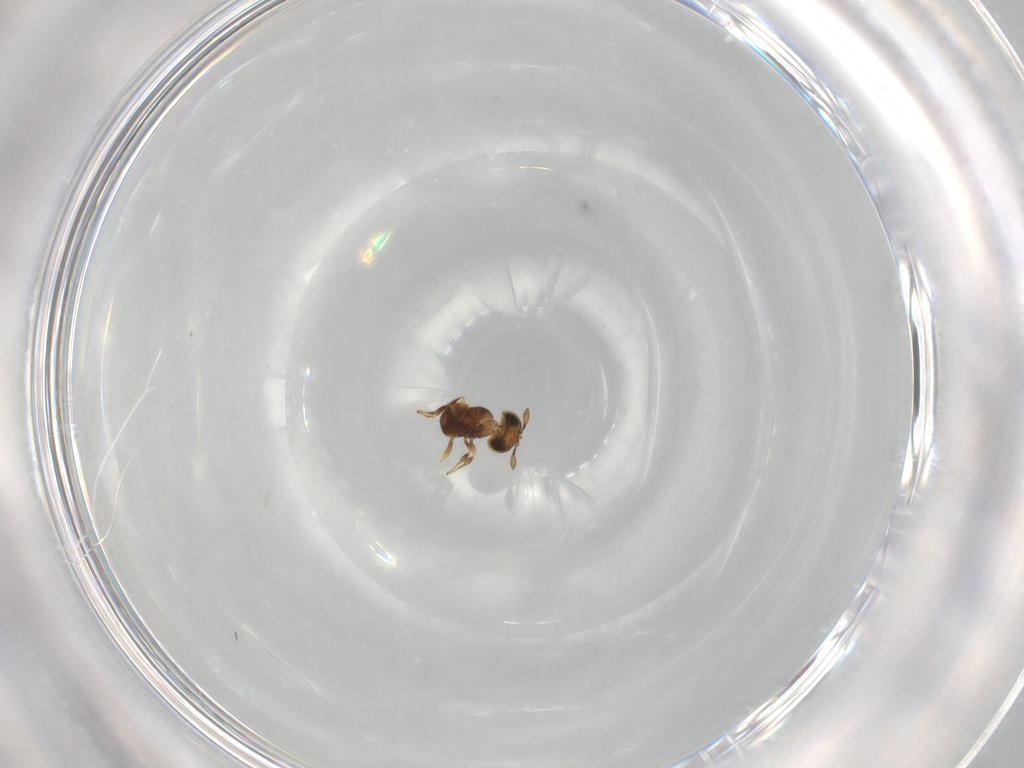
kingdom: Animalia
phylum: Arthropoda
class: Insecta
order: Hymenoptera
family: Scelionidae
